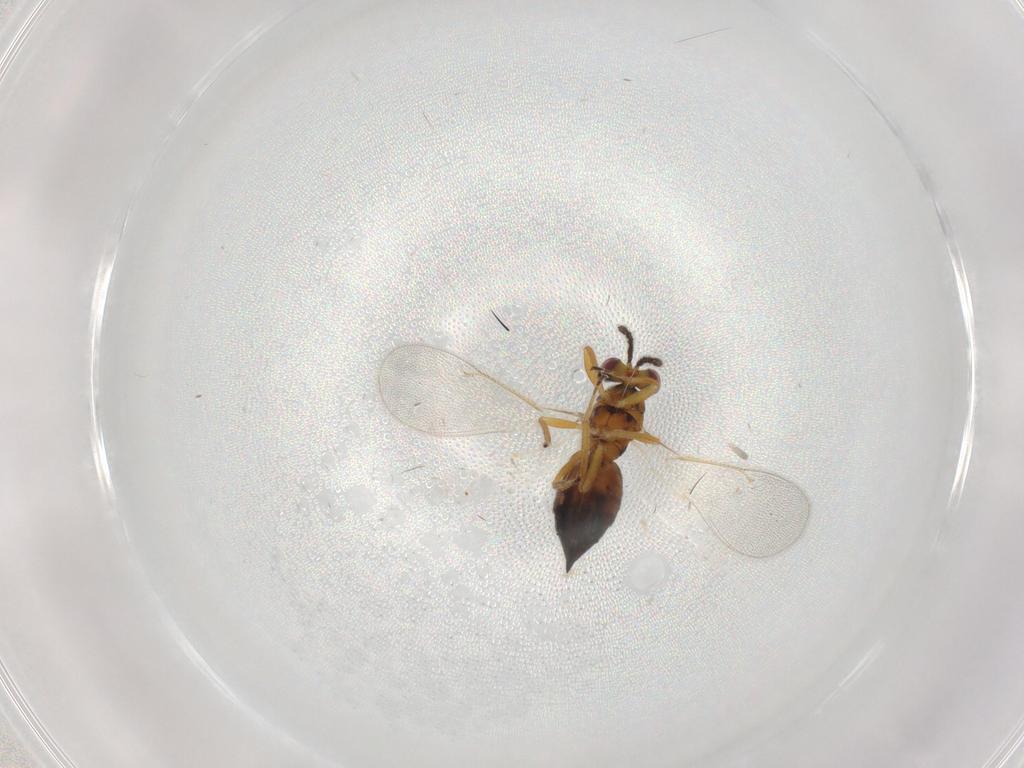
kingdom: Animalia
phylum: Arthropoda
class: Insecta
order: Hymenoptera
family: Eulophidae
